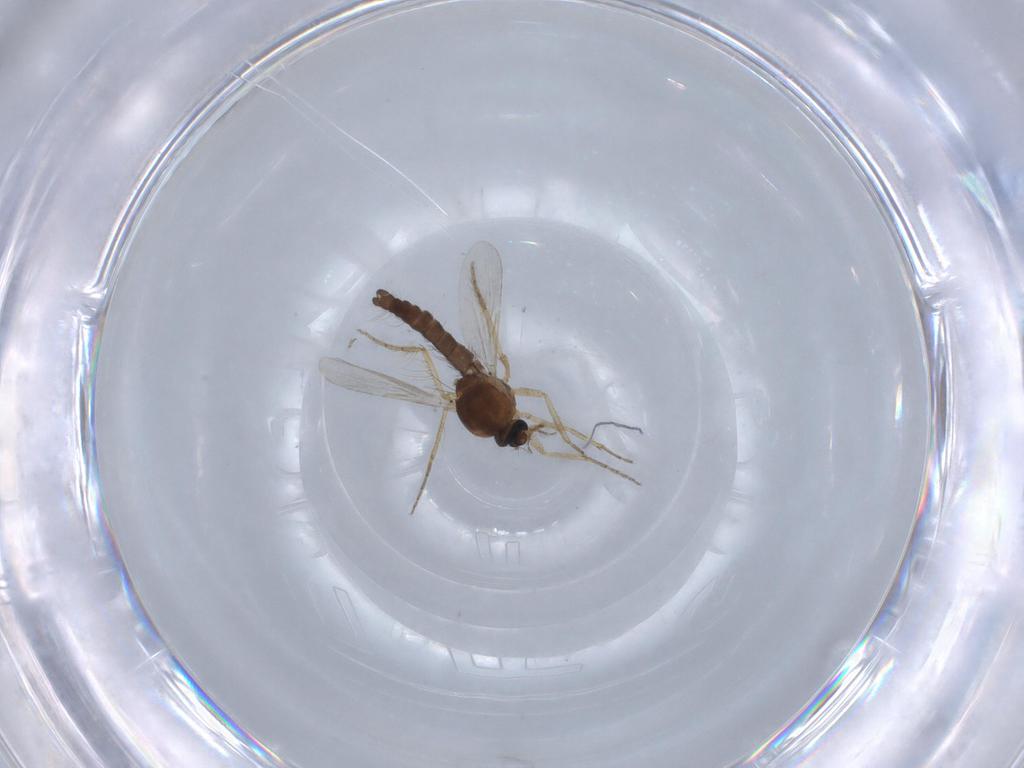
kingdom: Animalia
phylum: Arthropoda
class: Insecta
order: Diptera
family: Ceratopogonidae
